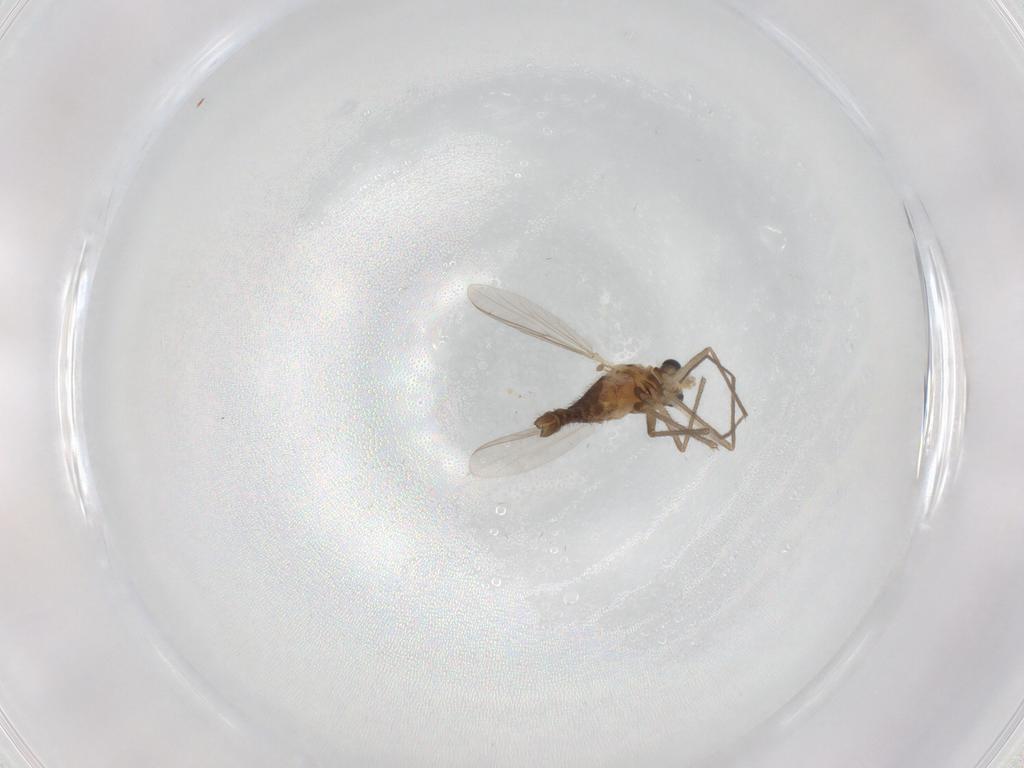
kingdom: Animalia
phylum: Arthropoda
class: Insecta
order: Diptera
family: Chironomidae
